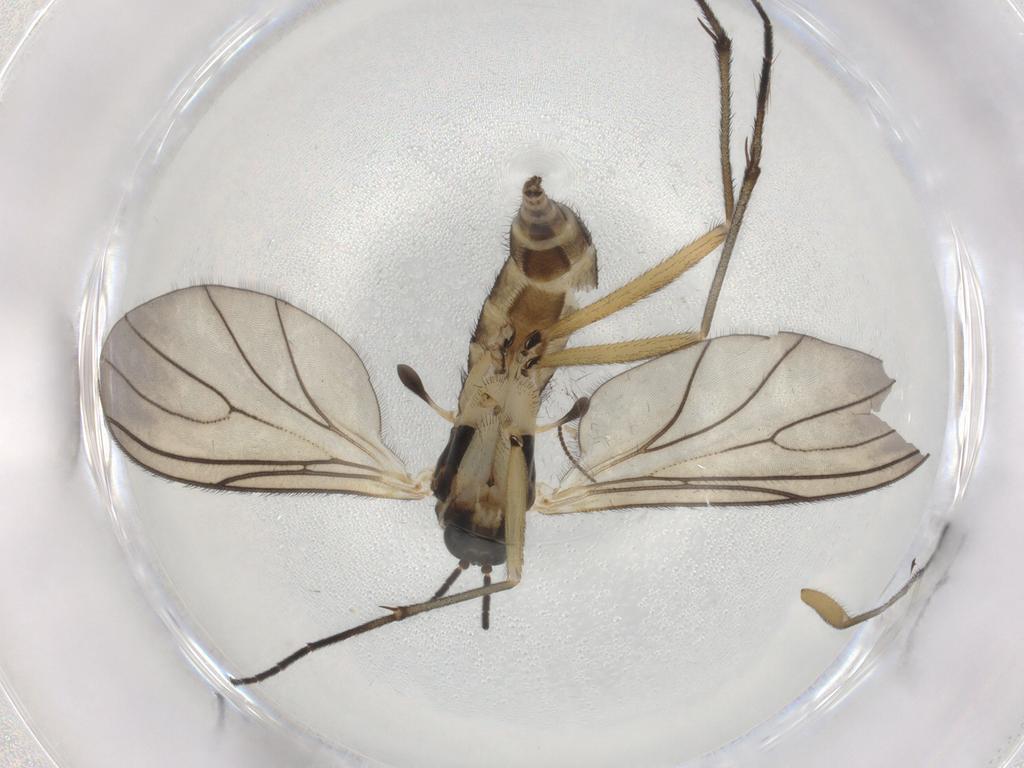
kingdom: Animalia
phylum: Arthropoda
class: Insecta
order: Diptera
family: Sciaridae
